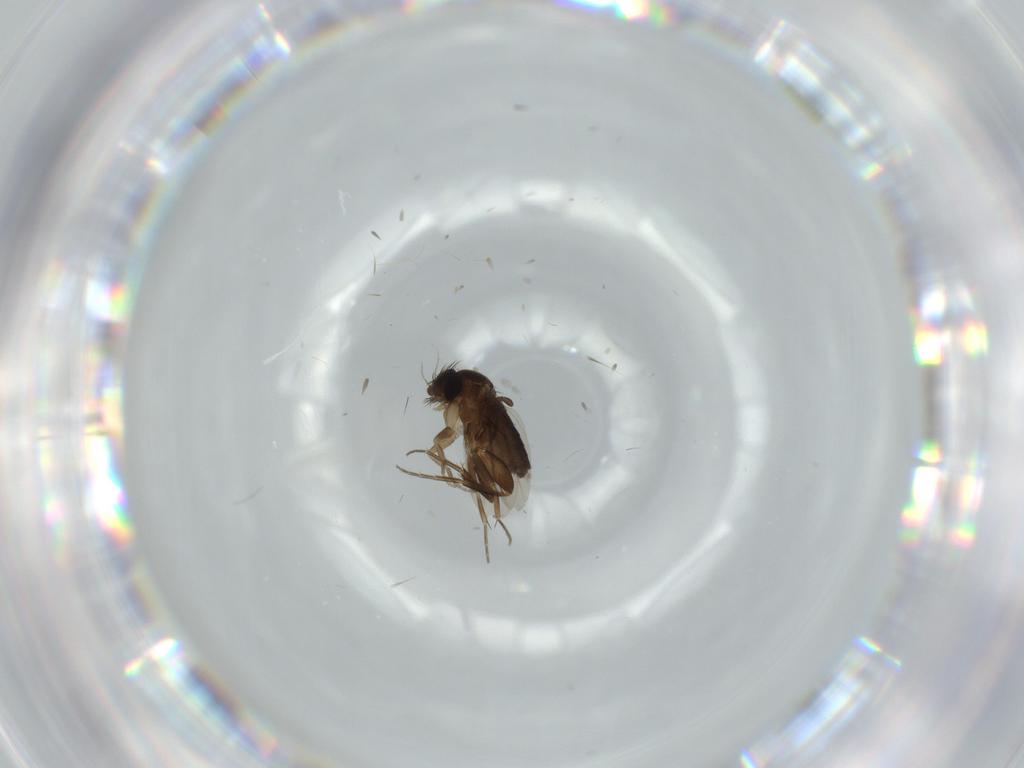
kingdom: Animalia
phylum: Arthropoda
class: Insecta
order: Diptera
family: Phoridae
